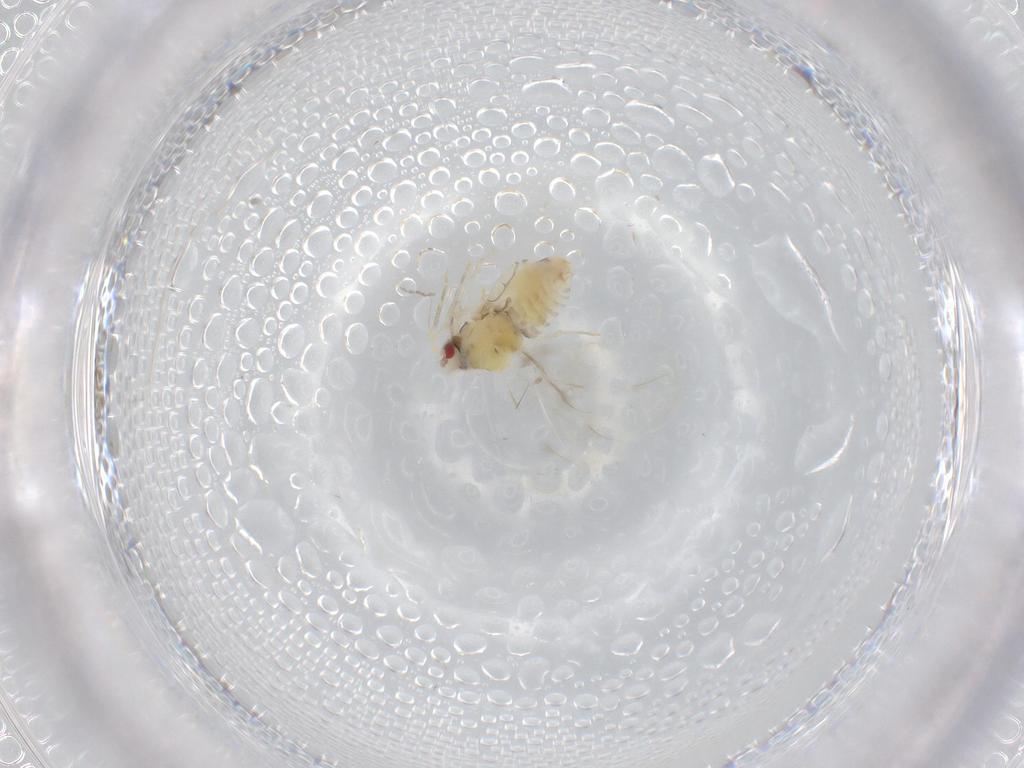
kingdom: Animalia
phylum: Arthropoda
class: Insecta
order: Hemiptera
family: Aleyrodidae
